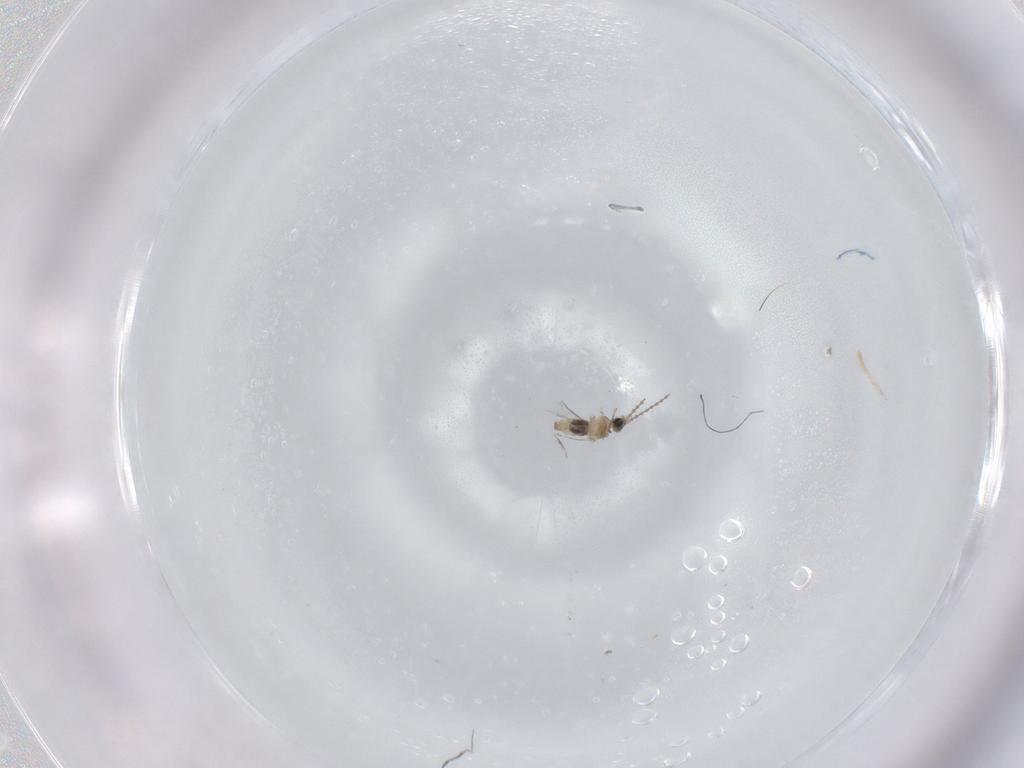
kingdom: Animalia
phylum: Arthropoda
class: Insecta
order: Diptera
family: Cecidomyiidae
